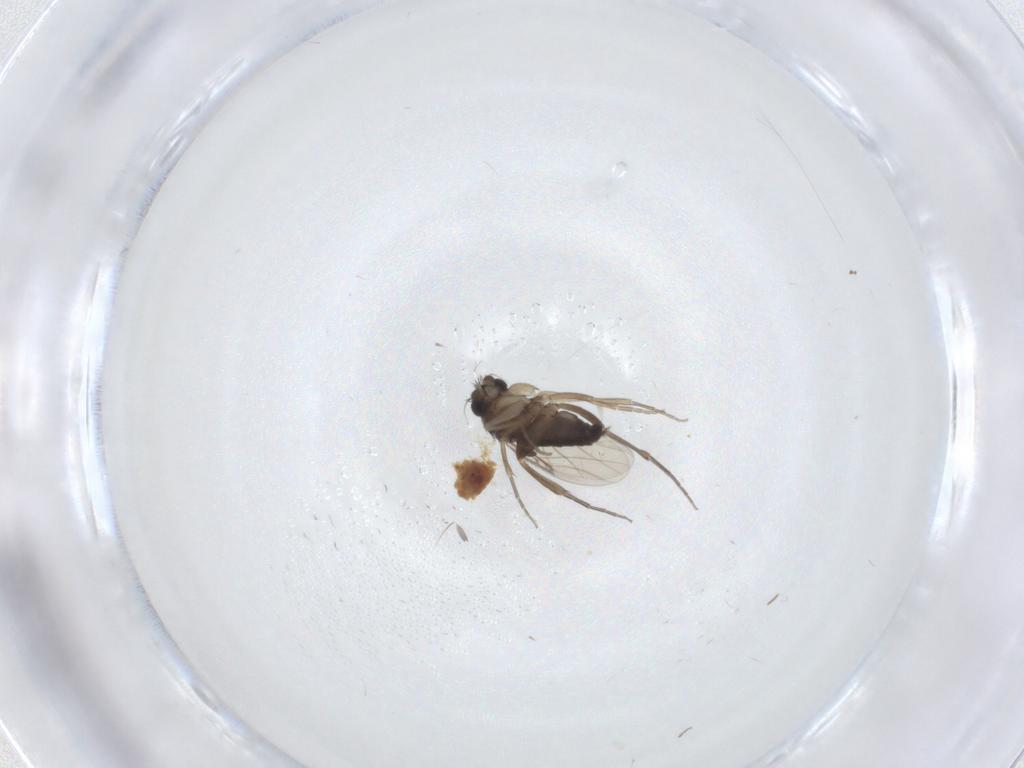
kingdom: Animalia
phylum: Arthropoda
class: Insecta
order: Diptera
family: Phoridae
